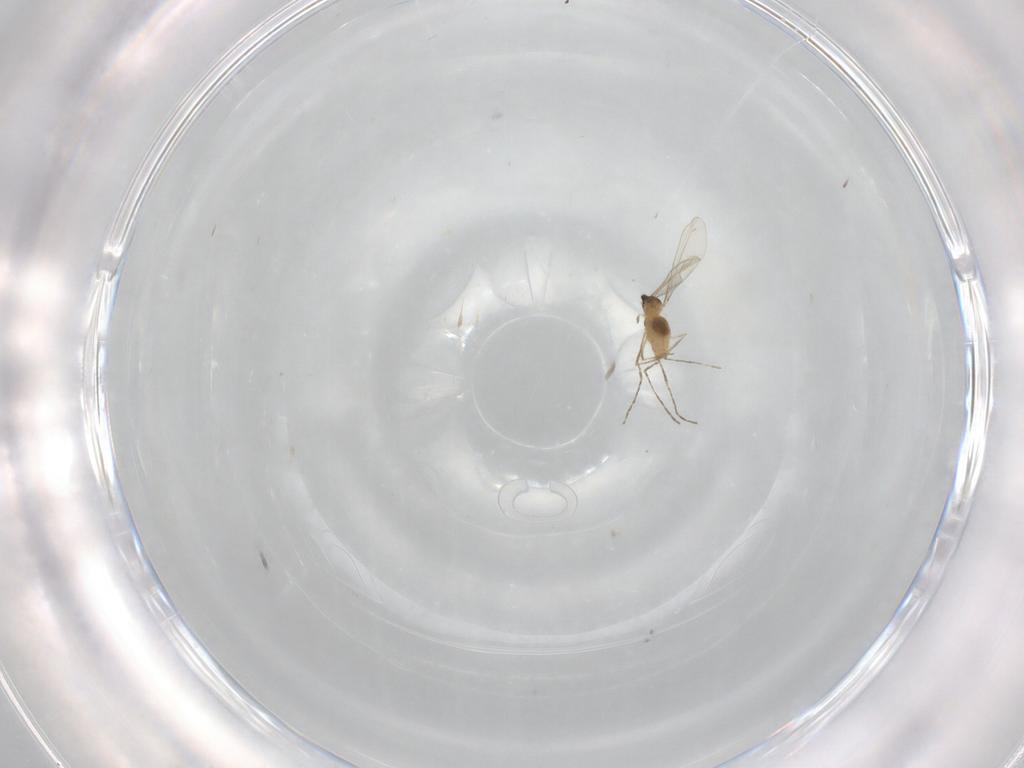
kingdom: Animalia
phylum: Arthropoda
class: Insecta
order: Diptera
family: Cecidomyiidae
